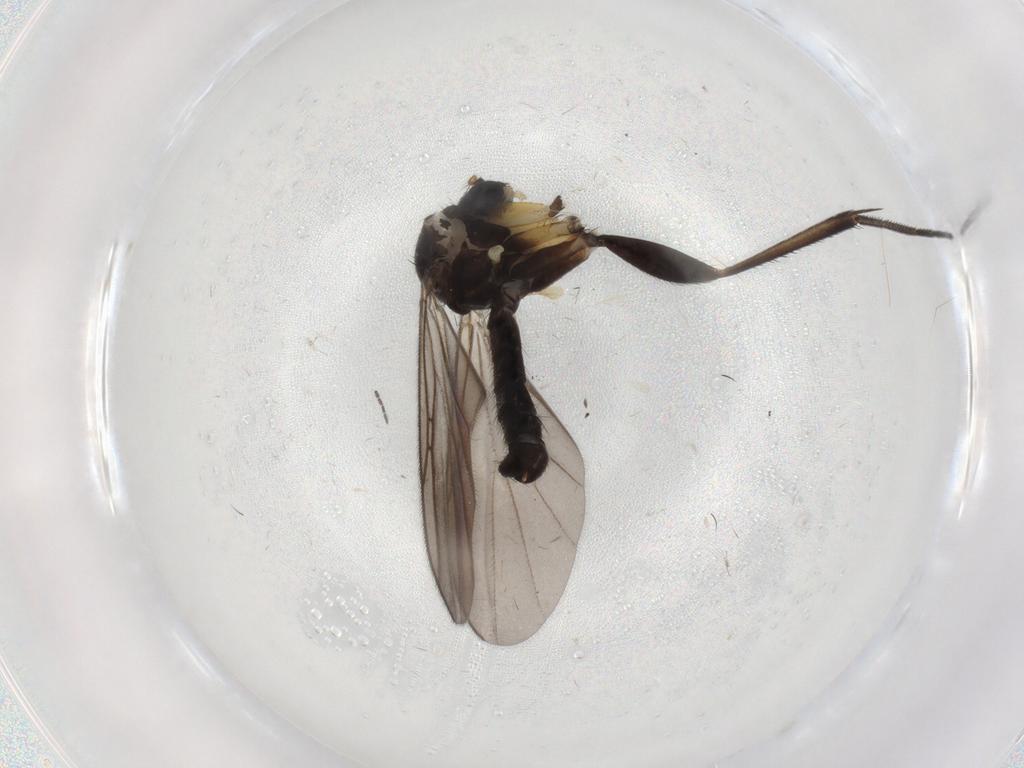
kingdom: Animalia
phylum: Arthropoda
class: Insecta
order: Diptera
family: Mycetophilidae
